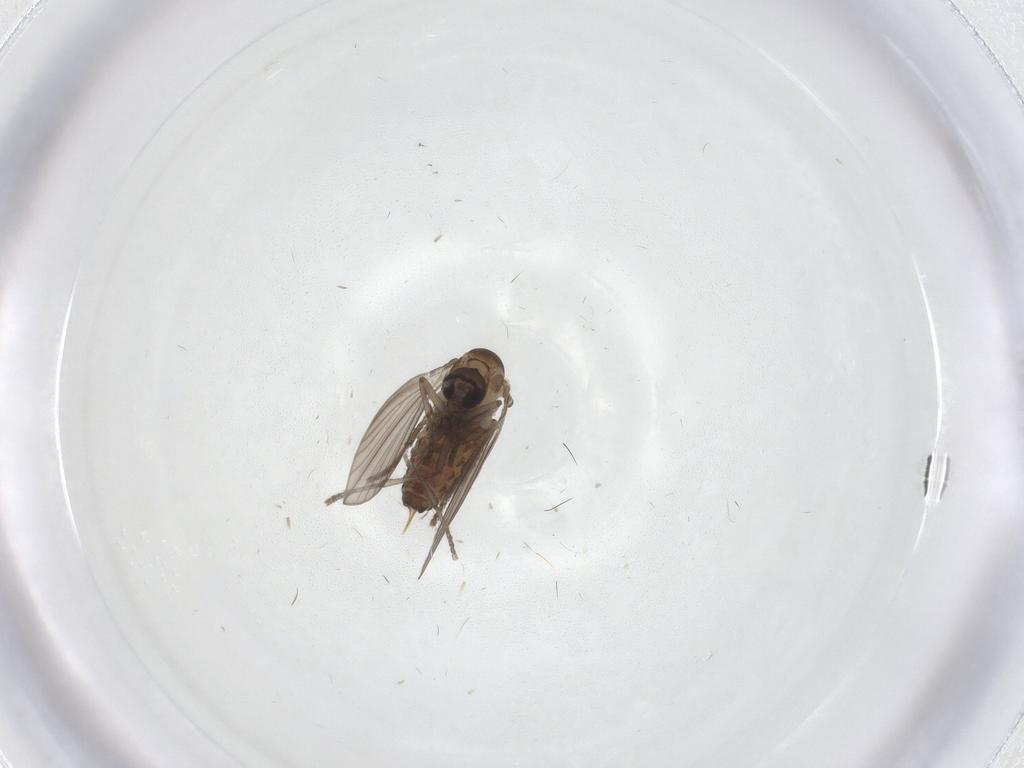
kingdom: Animalia
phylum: Arthropoda
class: Insecta
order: Diptera
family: Psychodidae
